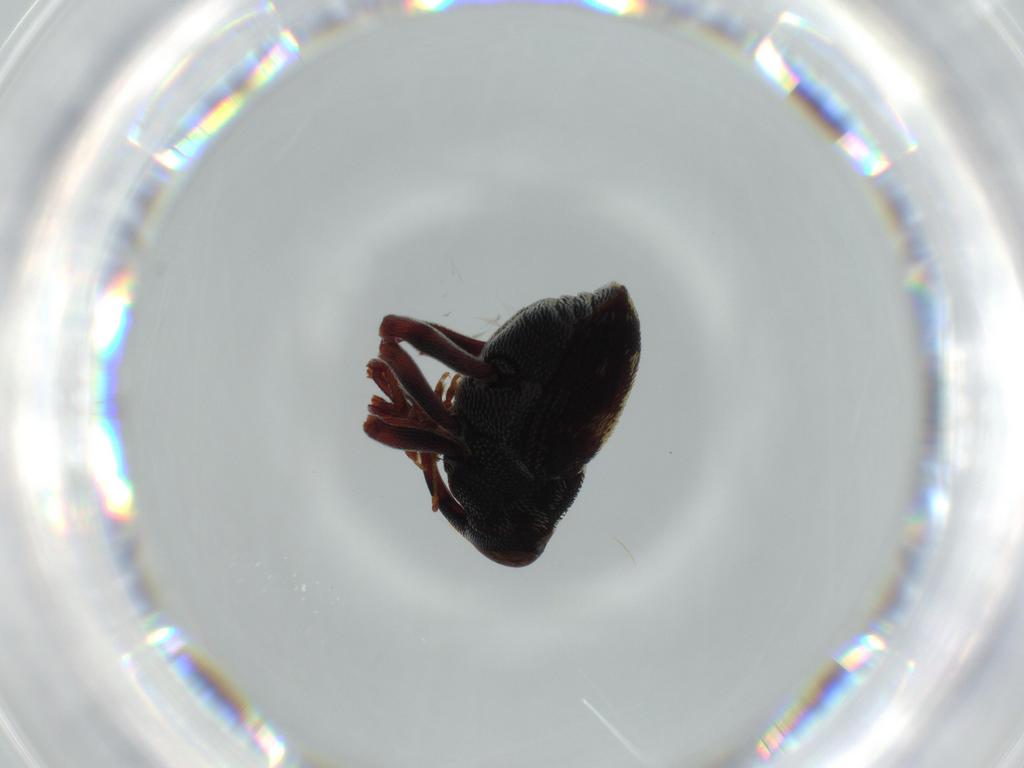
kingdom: Animalia
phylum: Arthropoda
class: Insecta
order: Coleoptera
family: Curculionidae
